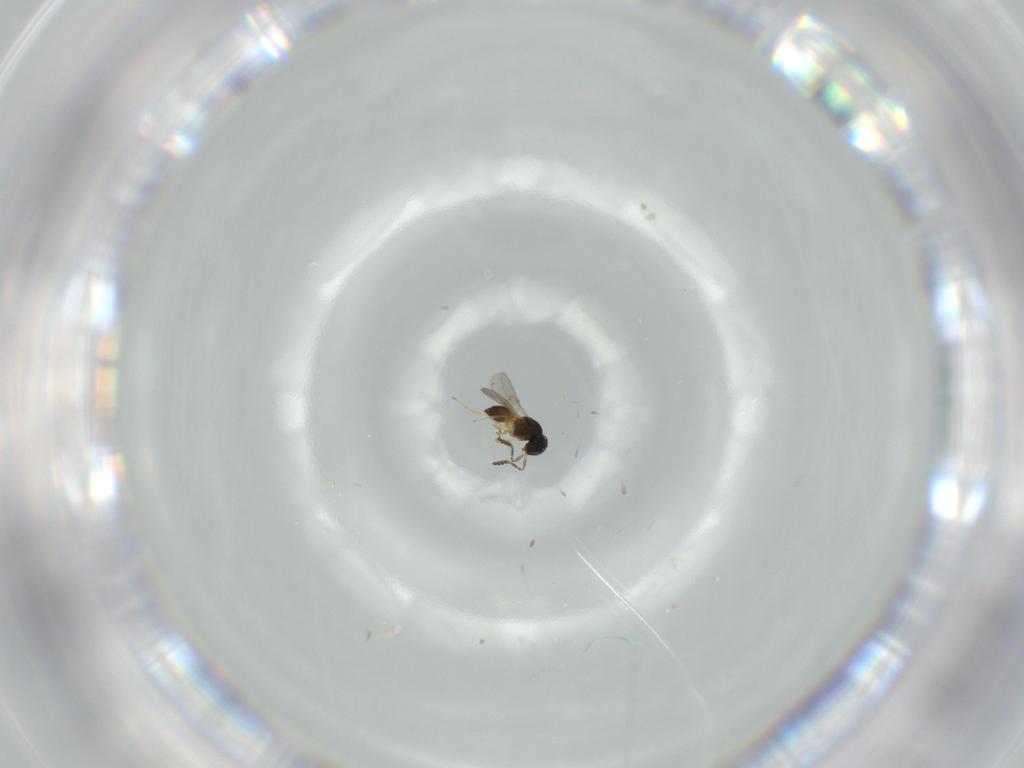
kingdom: Animalia
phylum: Arthropoda
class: Insecta
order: Hymenoptera
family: Scelionidae
